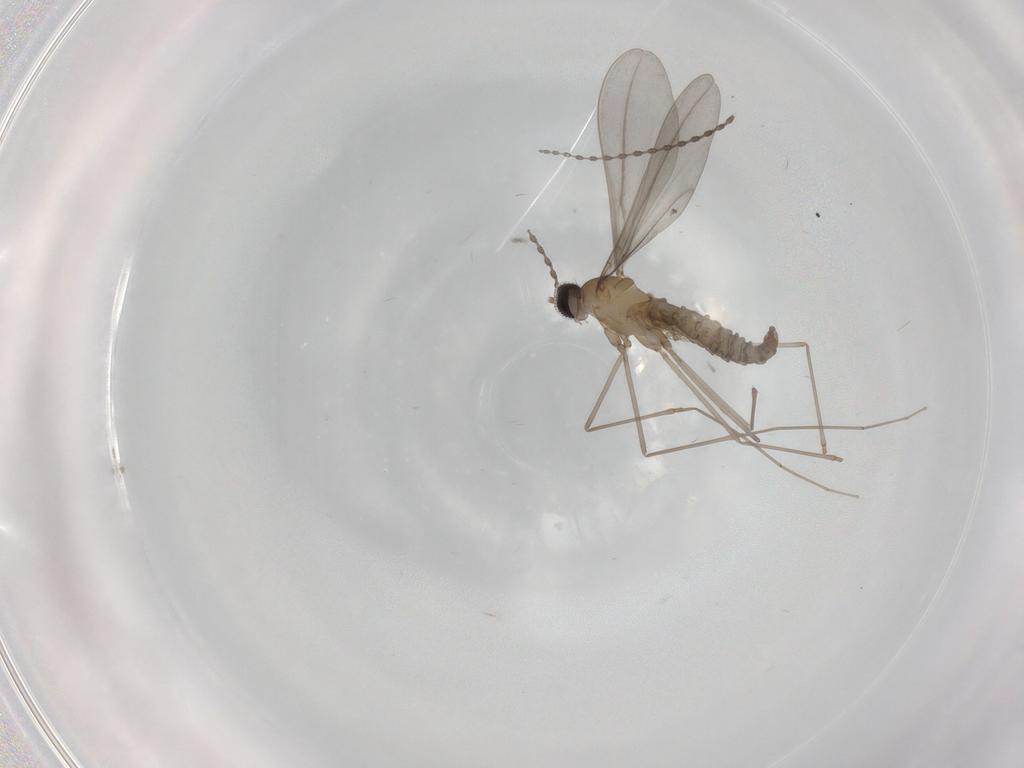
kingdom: Animalia
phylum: Arthropoda
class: Insecta
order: Diptera
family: Cecidomyiidae
